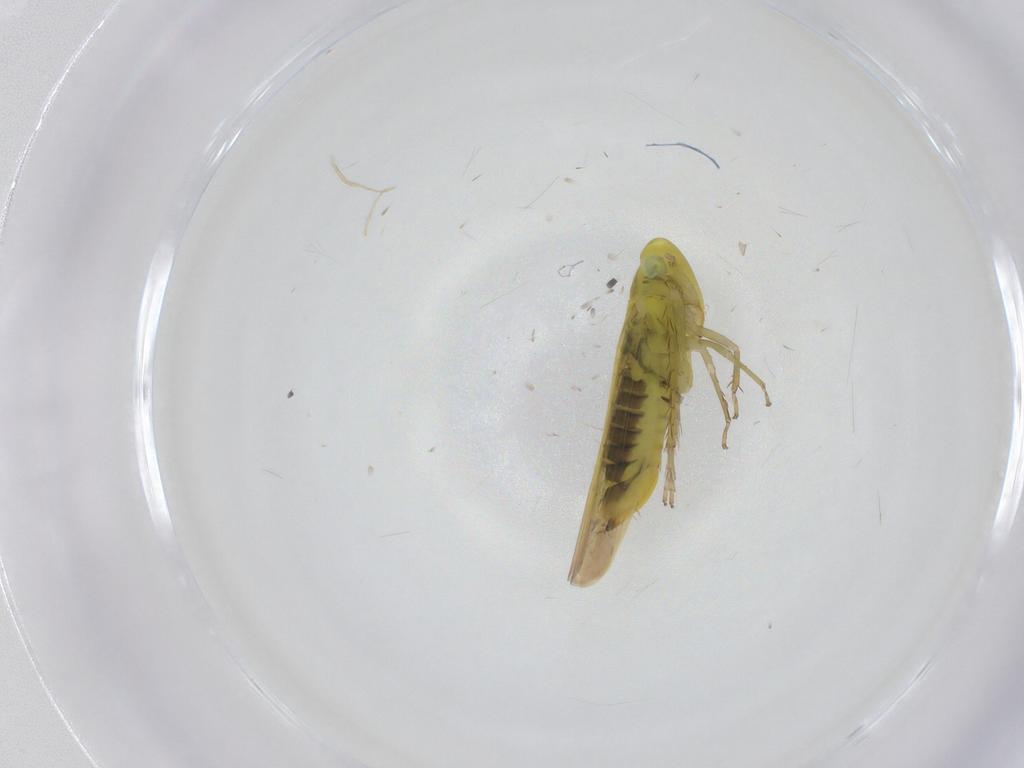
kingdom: Animalia
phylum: Arthropoda
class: Insecta
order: Hemiptera
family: Cicadellidae
